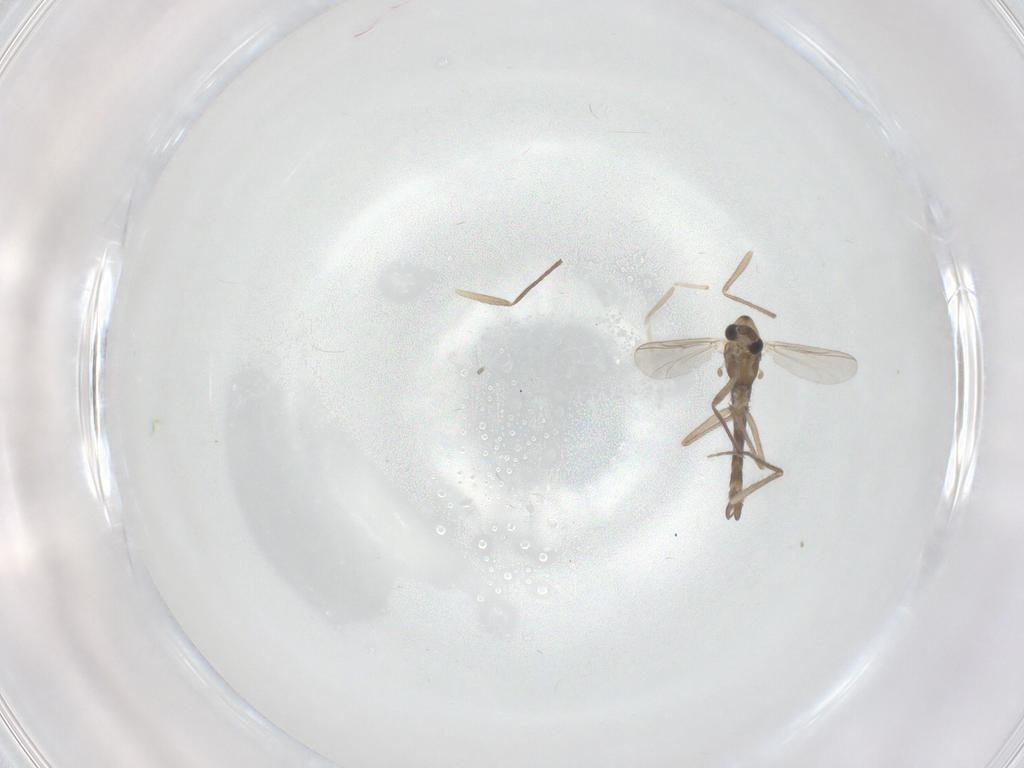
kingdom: Animalia
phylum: Arthropoda
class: Insecta
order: Diptera
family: Chironomidae
